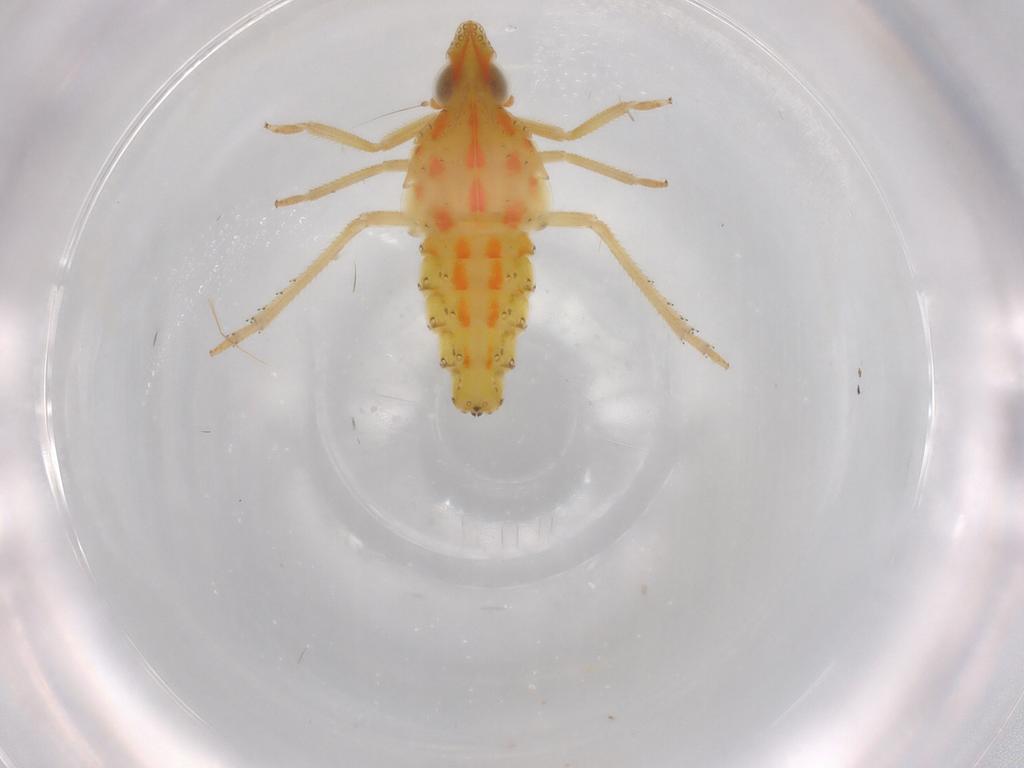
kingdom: Animalia
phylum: Arthropoda
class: Insecta
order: Hemiptera
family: Tropiduchidae
